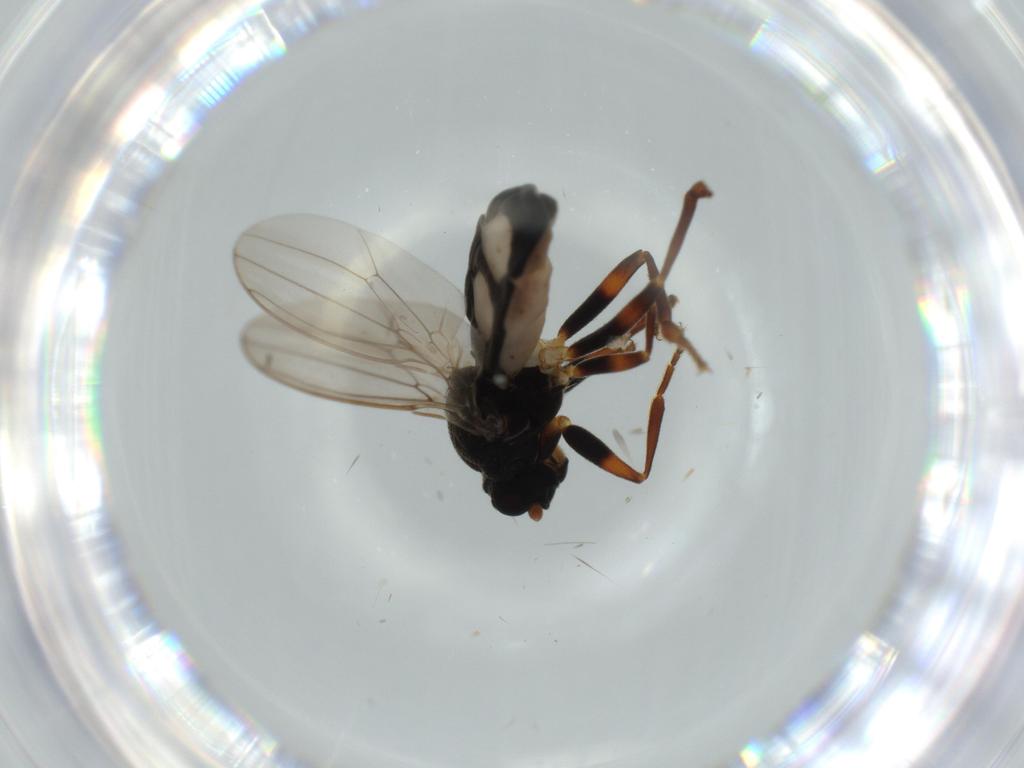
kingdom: Animalia
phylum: Arthropoda
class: Insecta
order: Diptera
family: Sphaeroceridae
